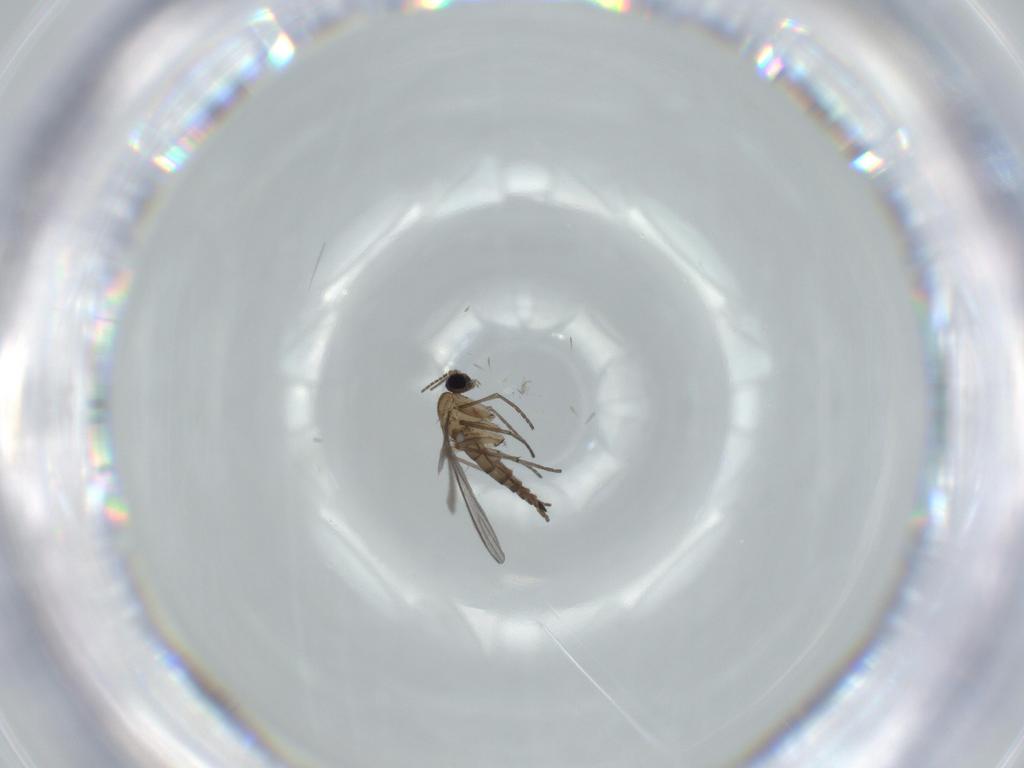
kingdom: Animalia
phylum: Arthropoda
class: Insecta
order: Diptera
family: Sciaridae
